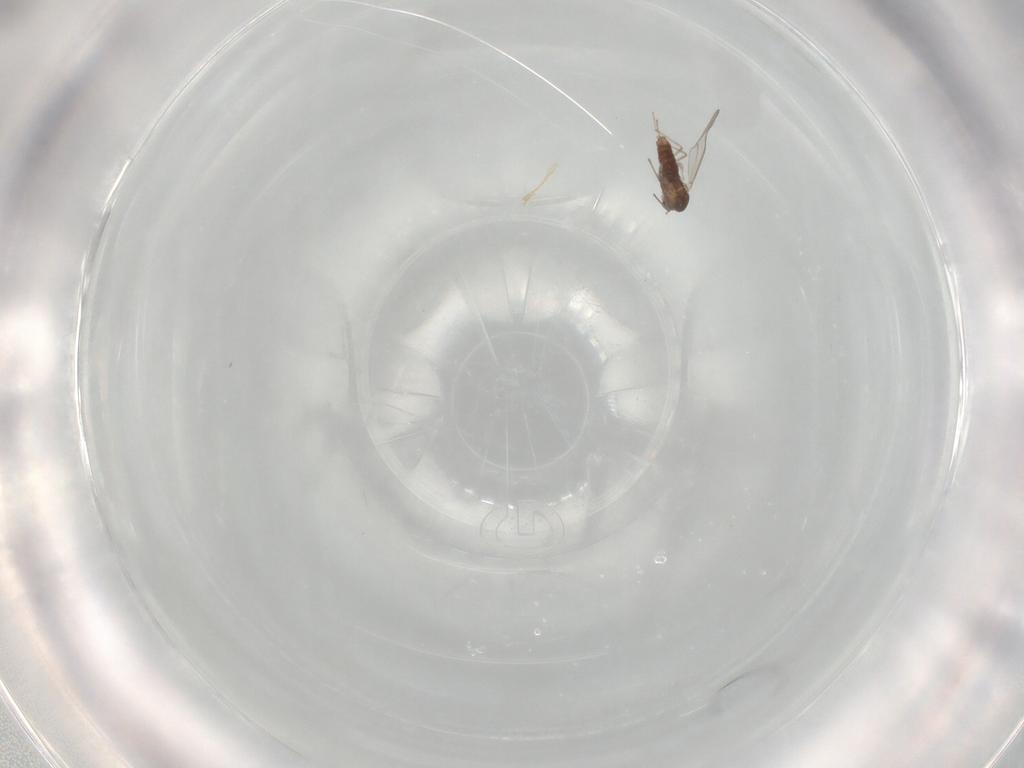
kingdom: Animalia
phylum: Arthropoda
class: Insecta
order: Diptera
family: Chironomidae
